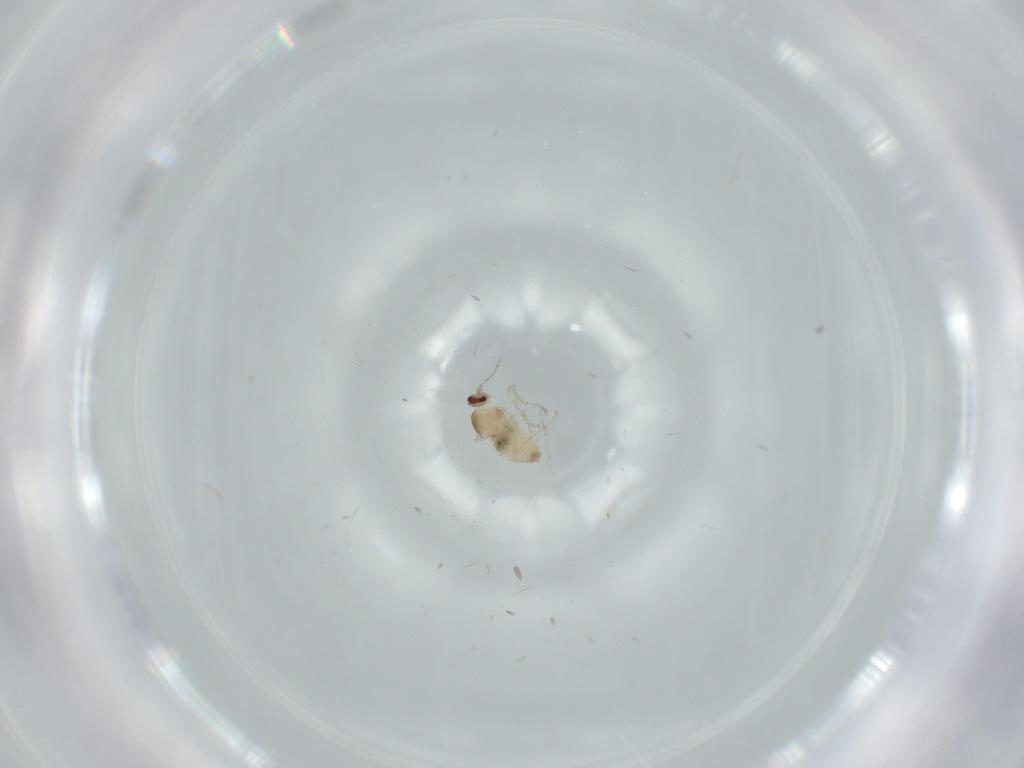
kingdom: Animalia
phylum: Arthropoda
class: Insecta
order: Diptera
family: Cecidomyiidae
